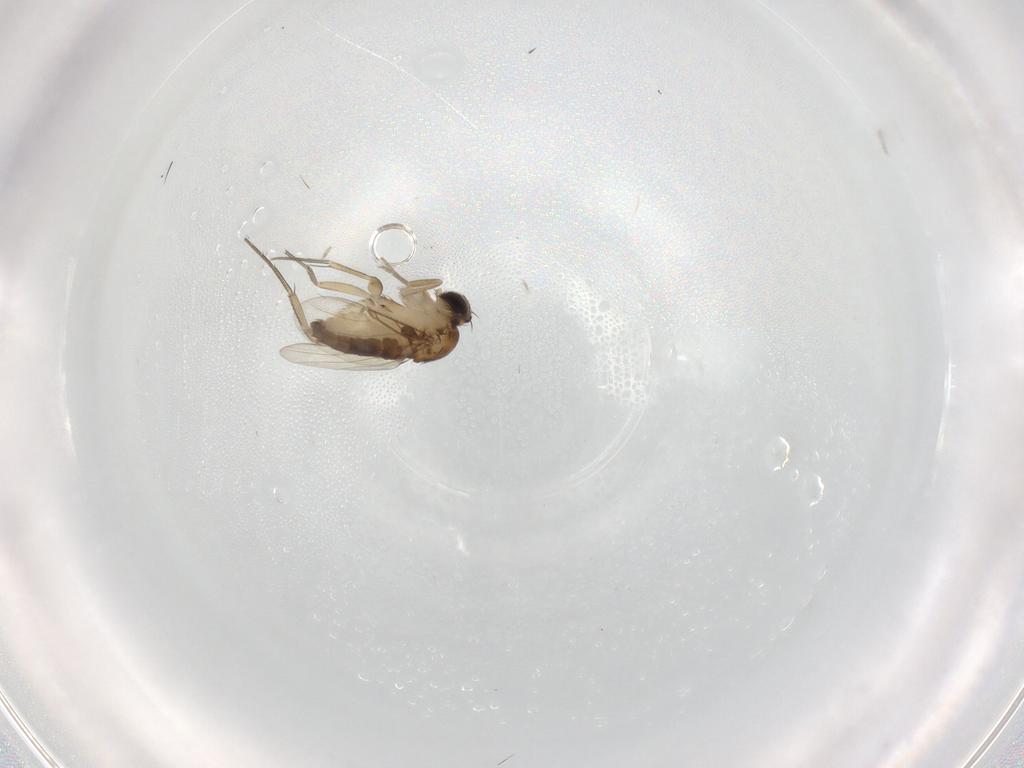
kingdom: Animalia
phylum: Arthropoda
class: Insecta
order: Diptera
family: Phoridae
